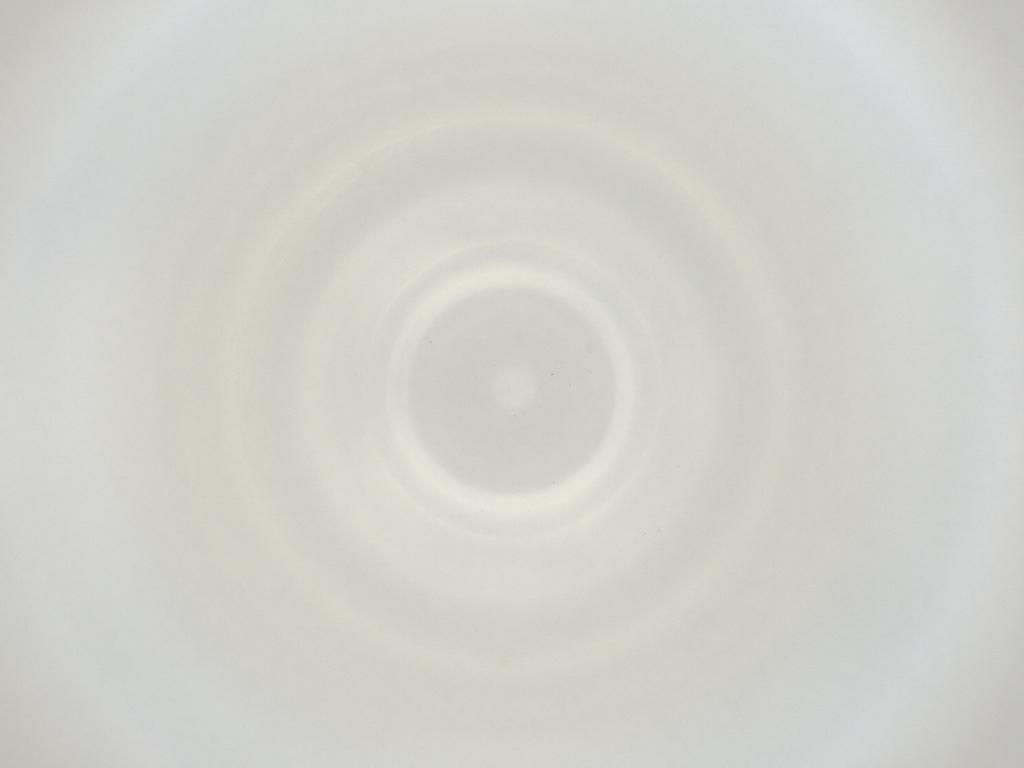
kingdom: Animalia
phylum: Arthropoda
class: Insecta
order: Diptera
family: Cecidomyiidae
